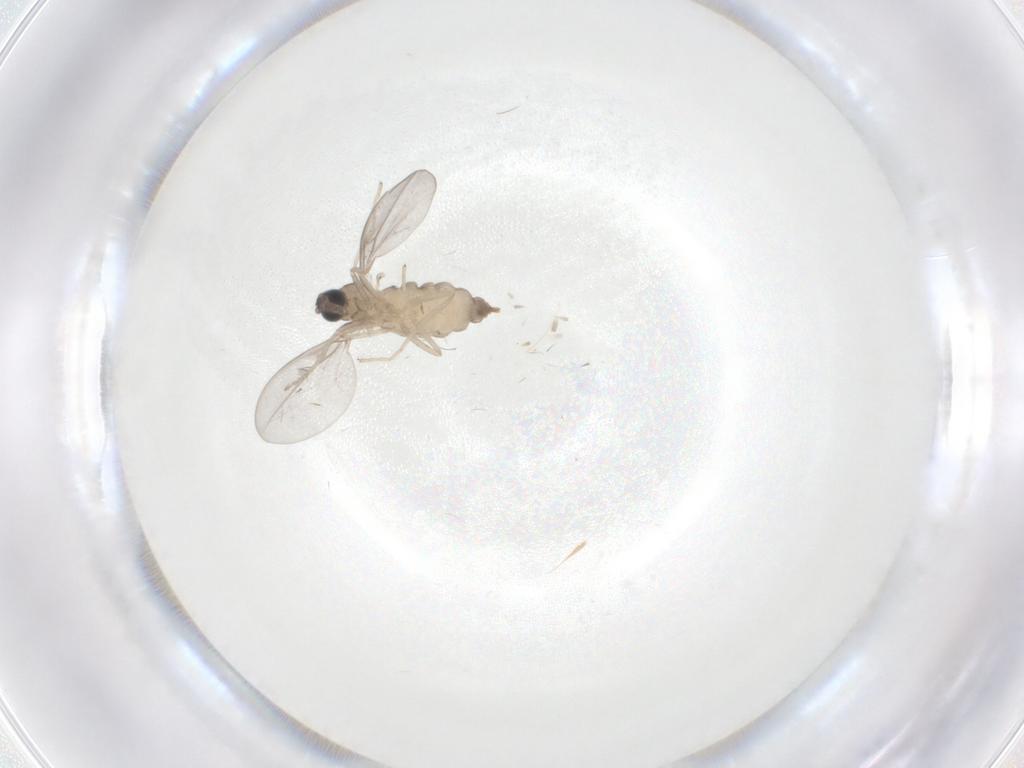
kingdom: Animalia
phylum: Arthropoda
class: Insecta
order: Diptera
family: Cecidomyiidae
